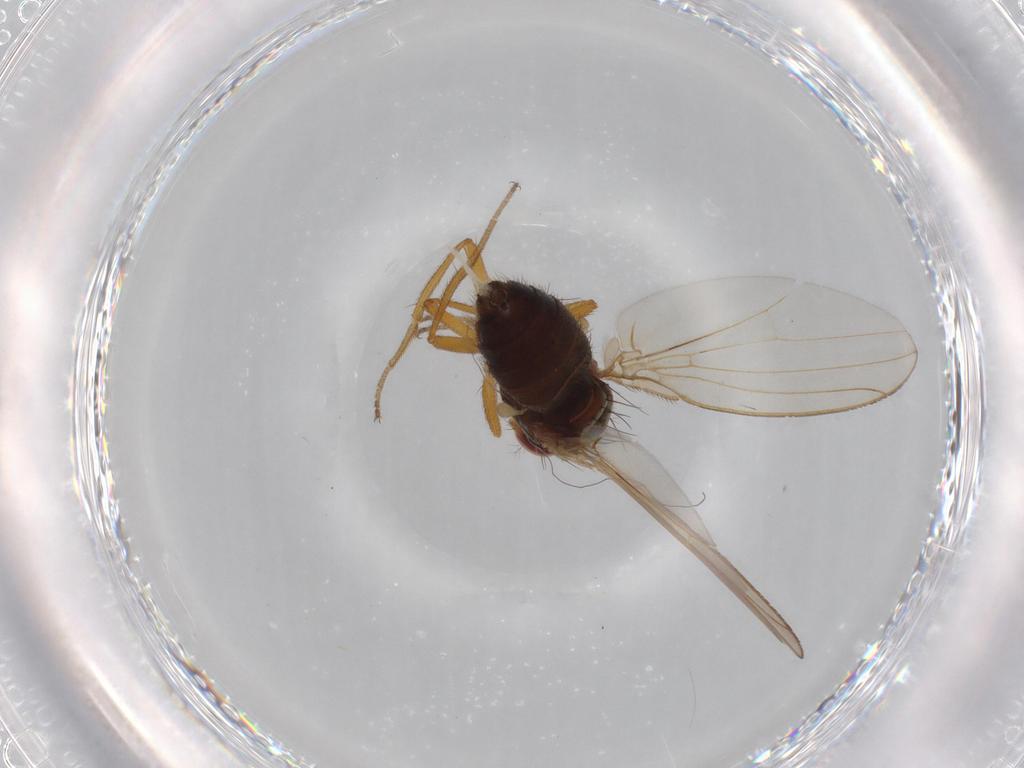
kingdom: Animalia
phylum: Arthropoda
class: Insecta
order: Diptera
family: Drosophilidae
